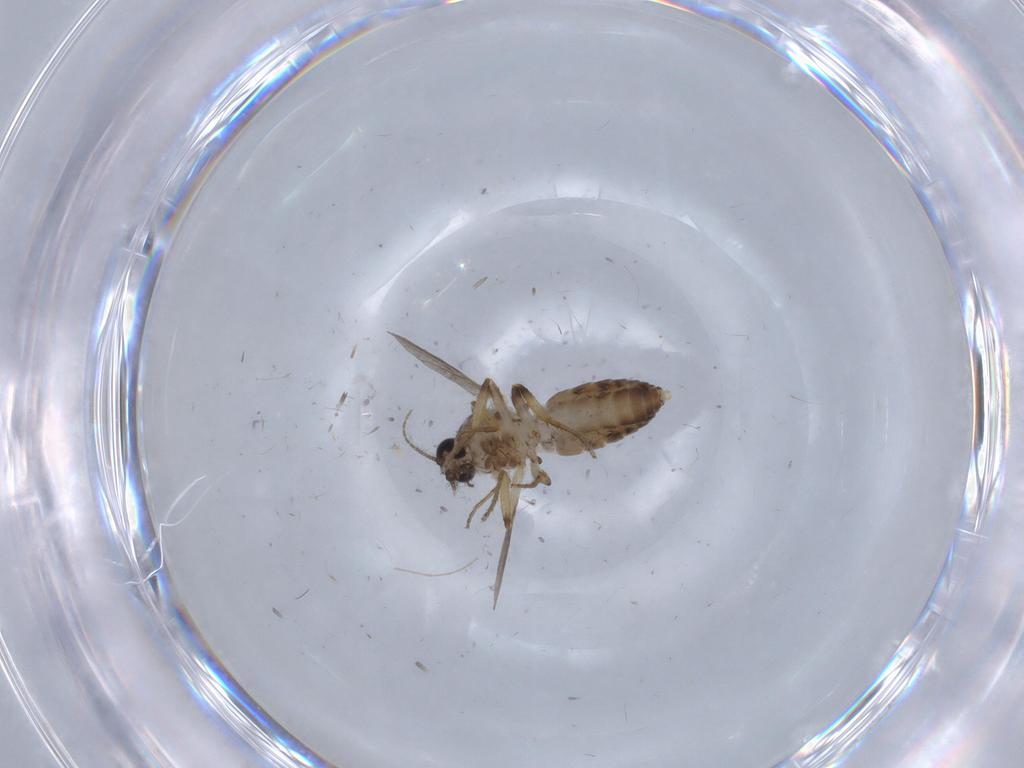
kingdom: Animalia
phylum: Arthropoda
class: Insecta
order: Diptera
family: Ceratopogonidae
